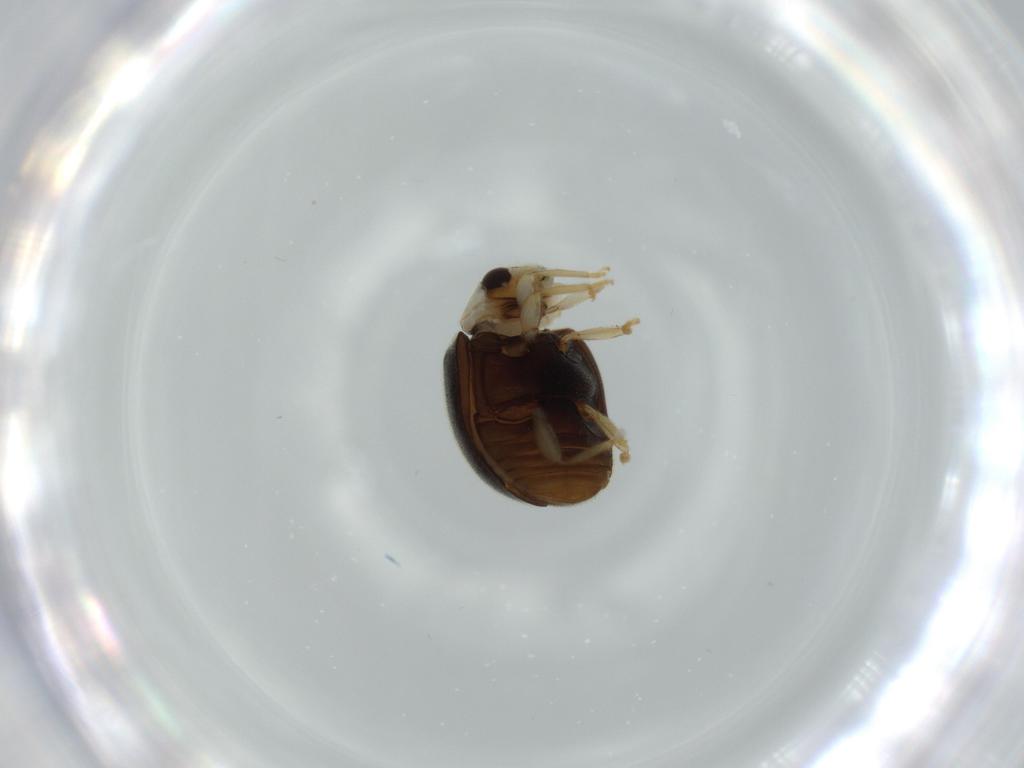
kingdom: Animalia
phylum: Arthropoda
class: Insecta
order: Coleoptera
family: Coccinellidae
